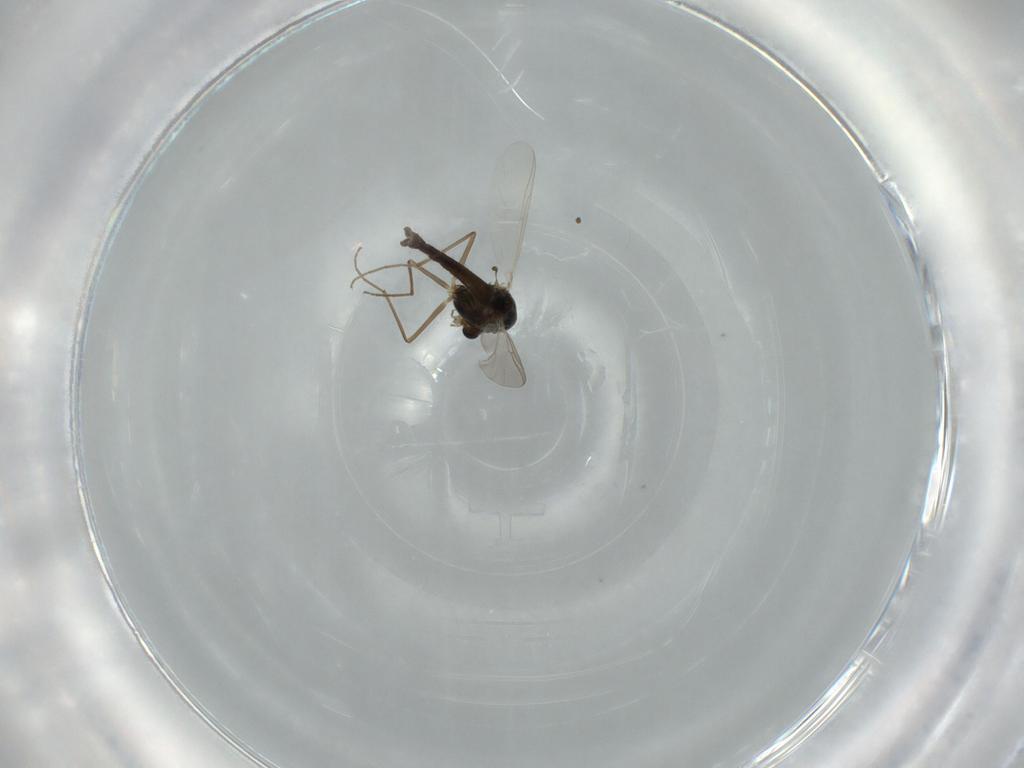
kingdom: Animalia
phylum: Arthropoda
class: Insecta
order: Diptera
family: Chironomidae
